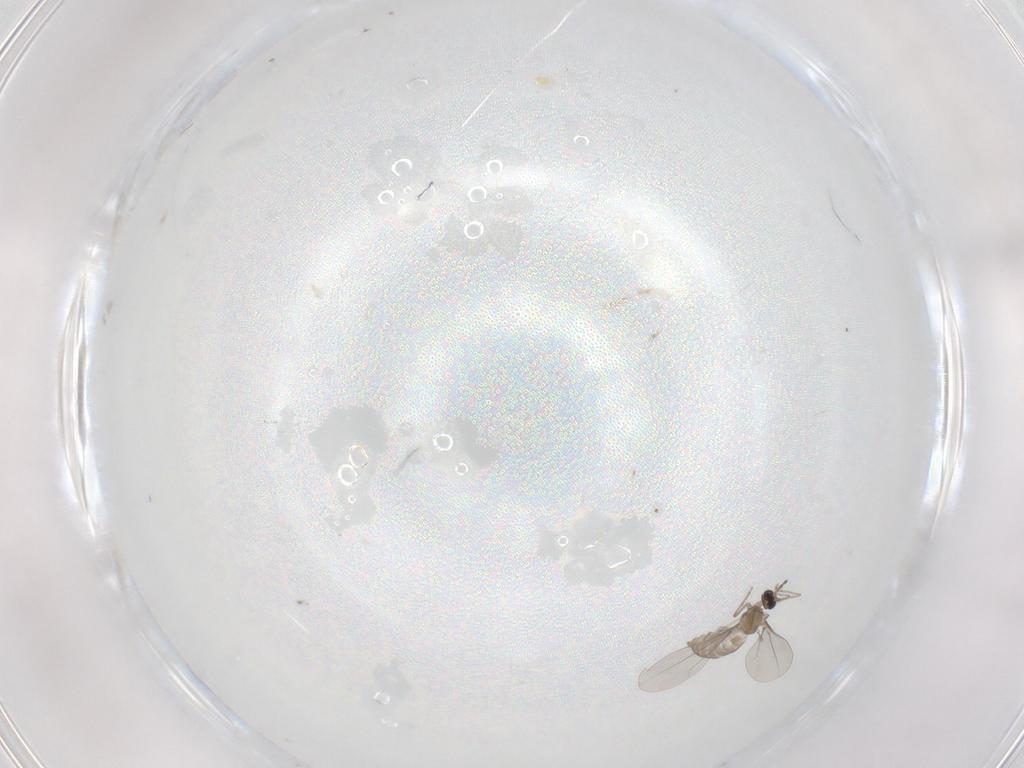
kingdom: Animalia
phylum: Arthropoda
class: Insecta
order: Diptera
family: Cecidomyiidae
